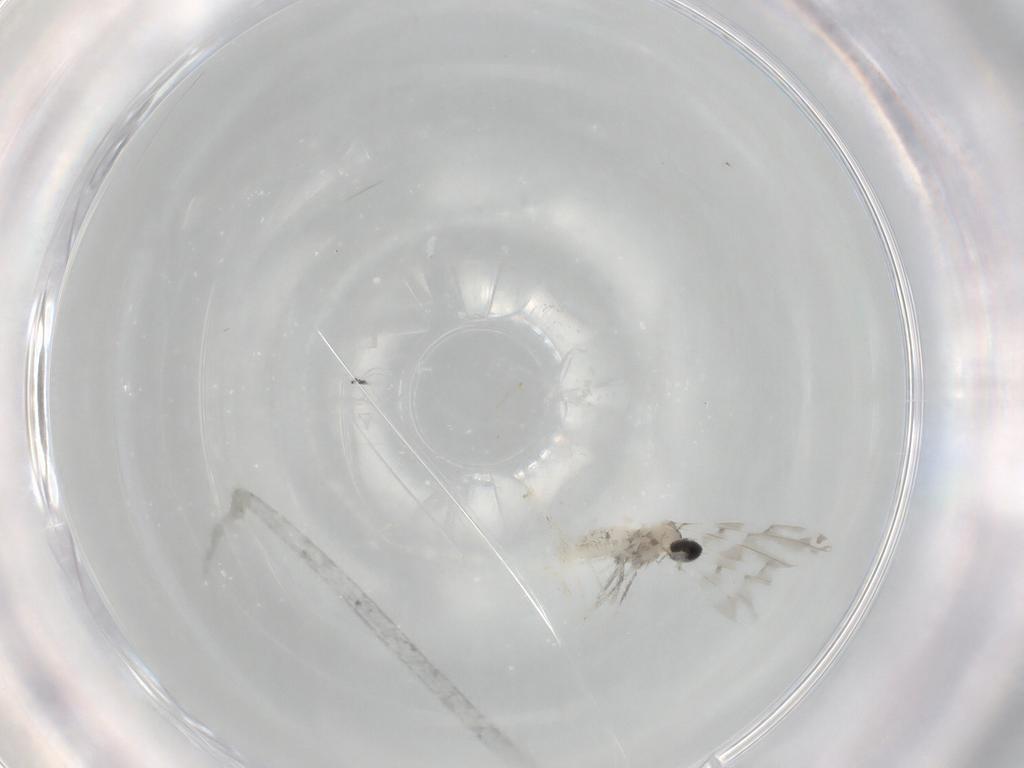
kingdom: Animalia
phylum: Arthropoda
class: Insecta
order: Diptera
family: Cecidomyiidae
